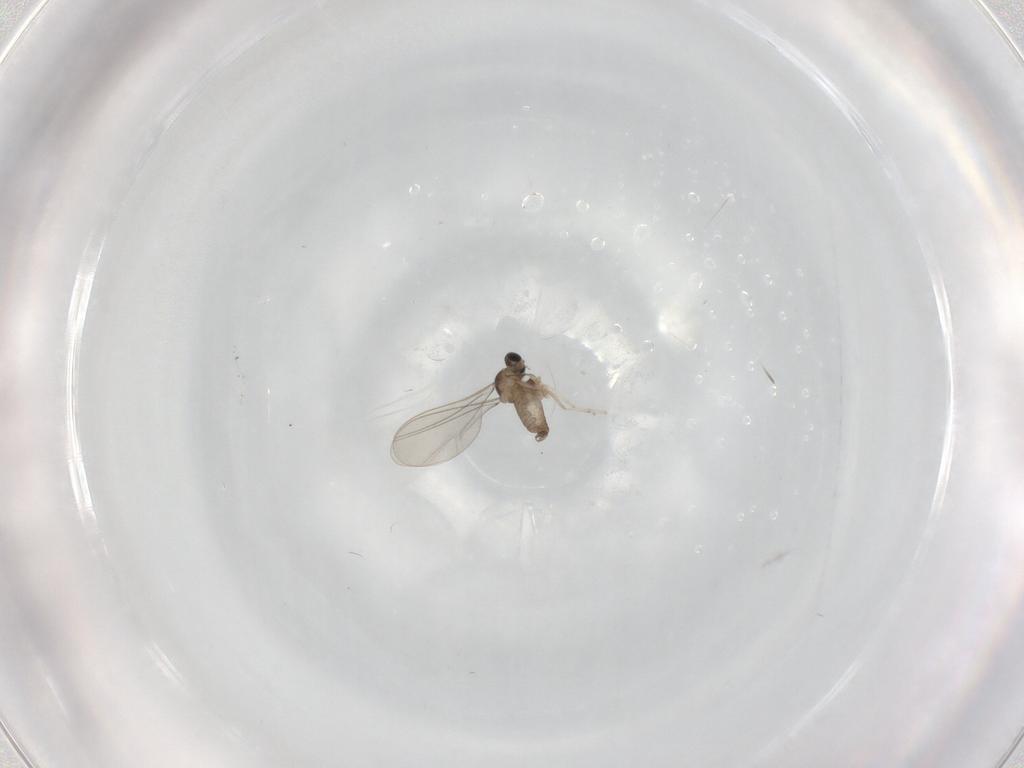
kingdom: Animalia
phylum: Arthropoda
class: Insecta
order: Diptera
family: Cecidomyiidae
